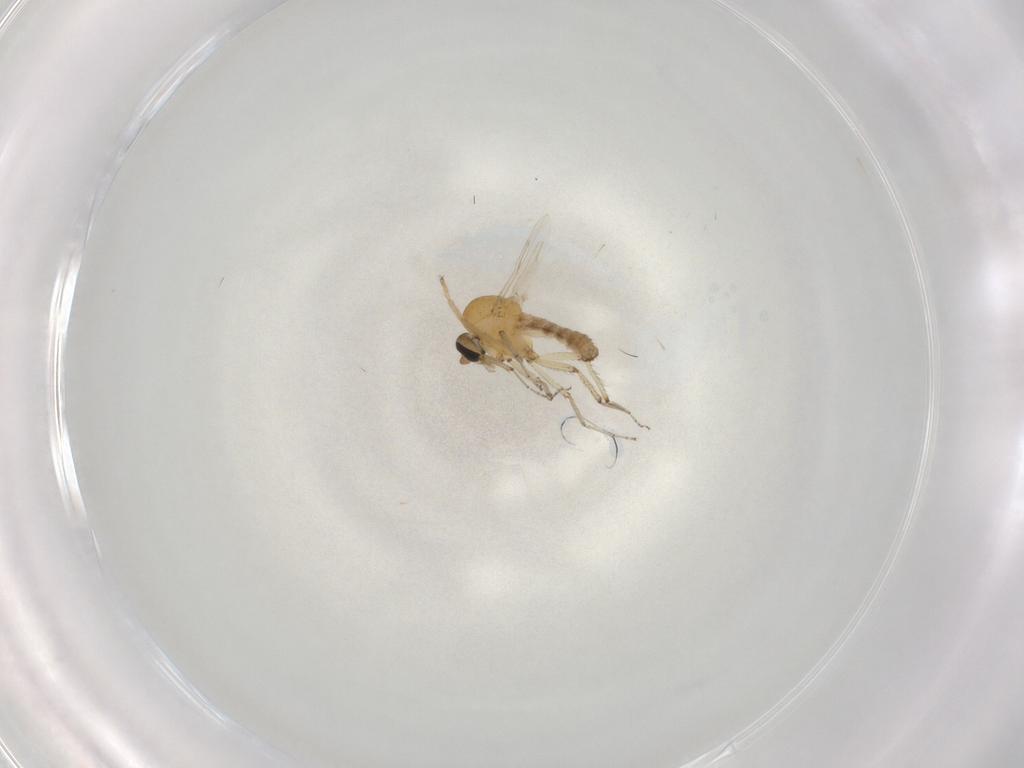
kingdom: Animalia
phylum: Arthropoda
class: Insecta
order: Diptera
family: Ceratopogonidae
